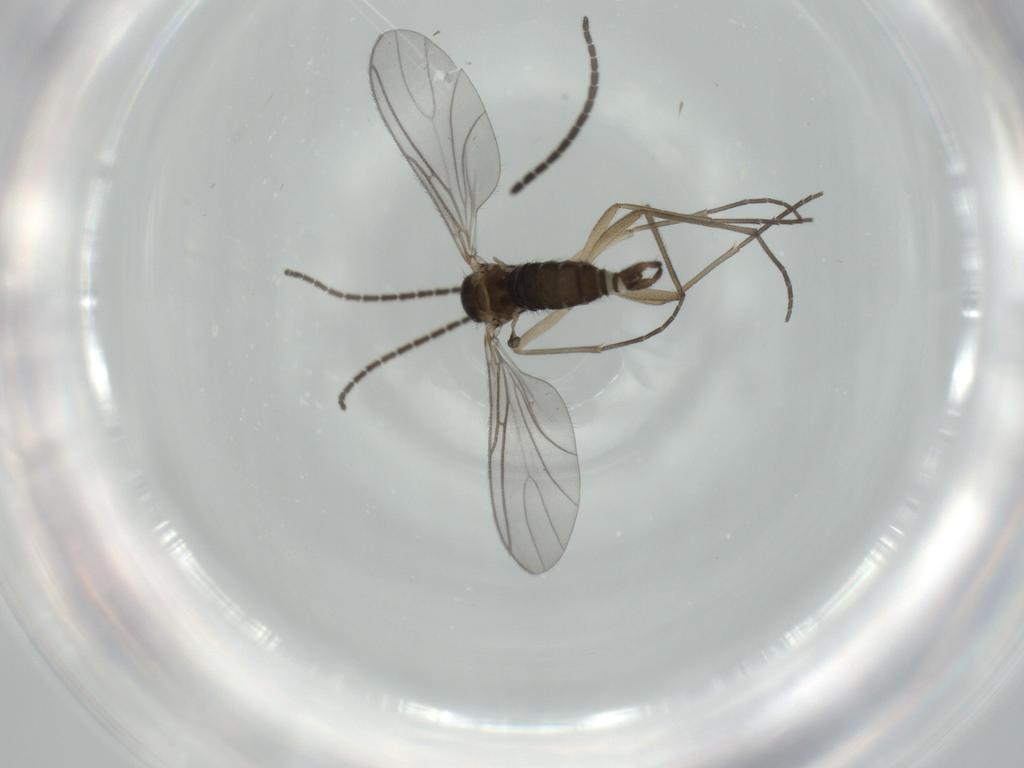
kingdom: Animalia
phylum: Arthropoda
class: Insecta
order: Diptera
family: Sciaridae
